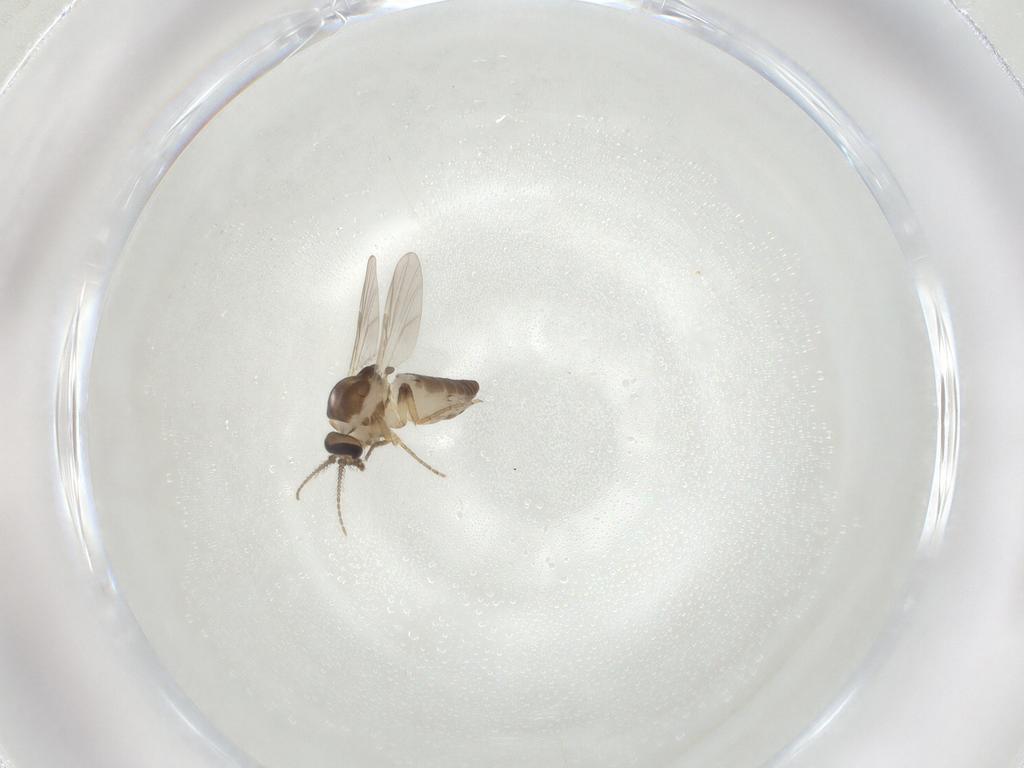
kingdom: Animalia
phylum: Arthropoda
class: Insecta
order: Diptera
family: Ceratopogonidae
